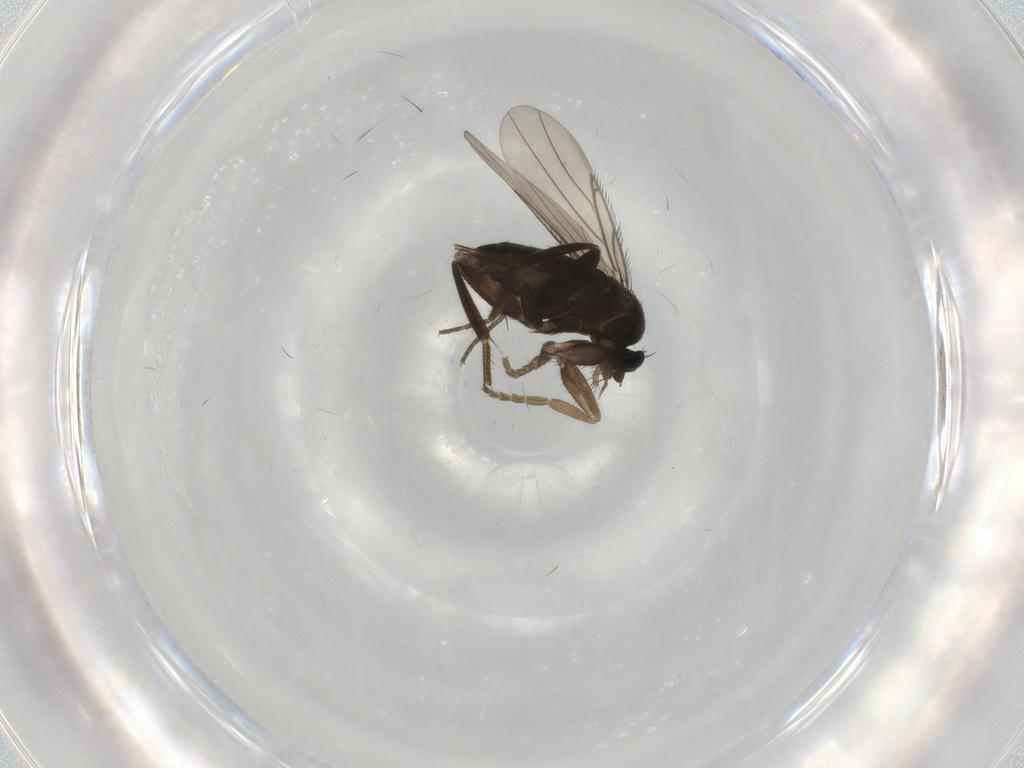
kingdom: Animalia
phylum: Arthropoda
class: Insecta
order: Diptera
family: Phoridae
